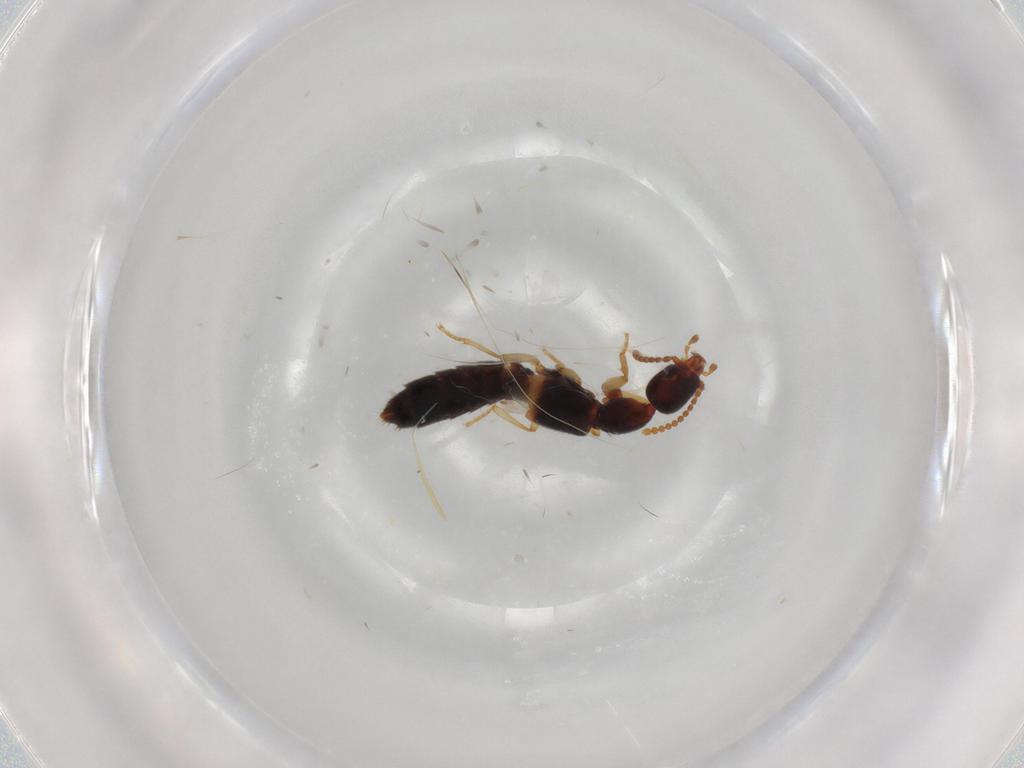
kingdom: Animalia
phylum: Arthropoda
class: Insecta
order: Coleoptera
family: Staphylinidae
